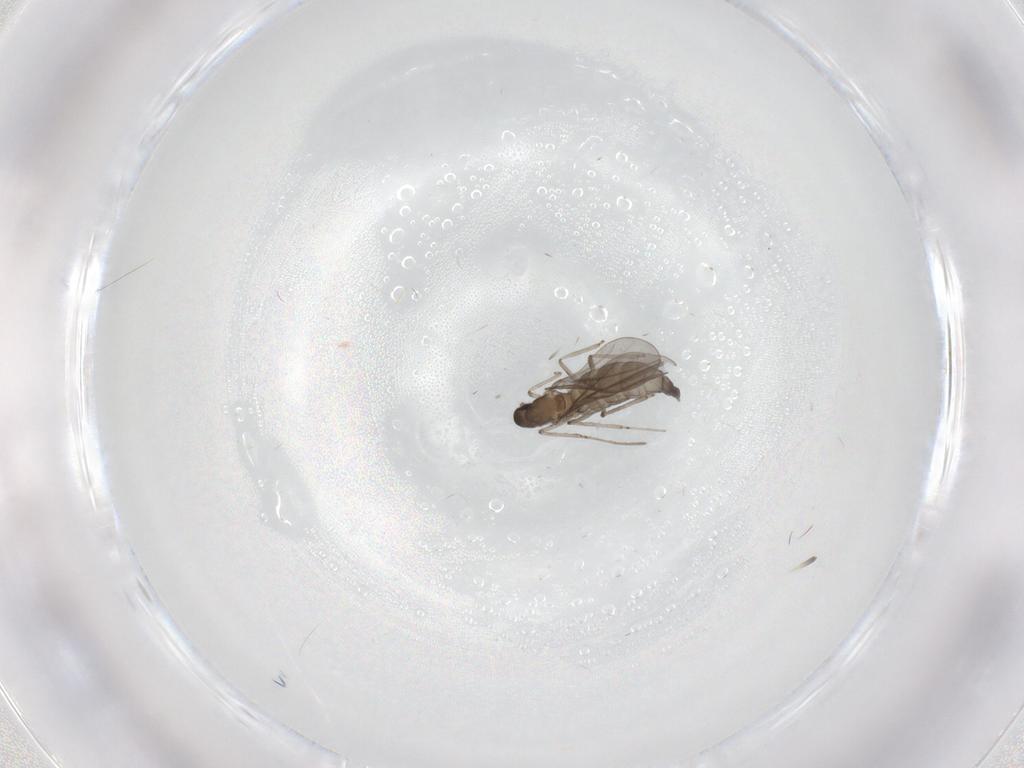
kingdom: Animalia
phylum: Arthropoda
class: Insecta
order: Diptera
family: Cecidomyiidae
